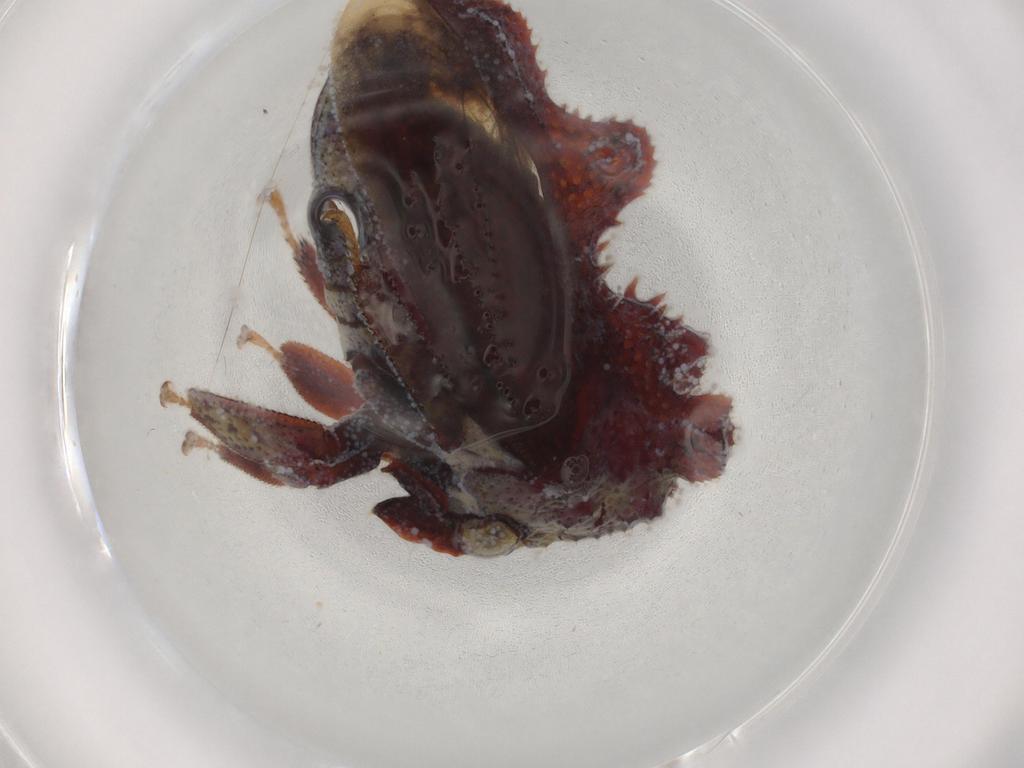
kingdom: Animalia
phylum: Arthropoda
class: Insecta
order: Hemiptera
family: Membracidae
